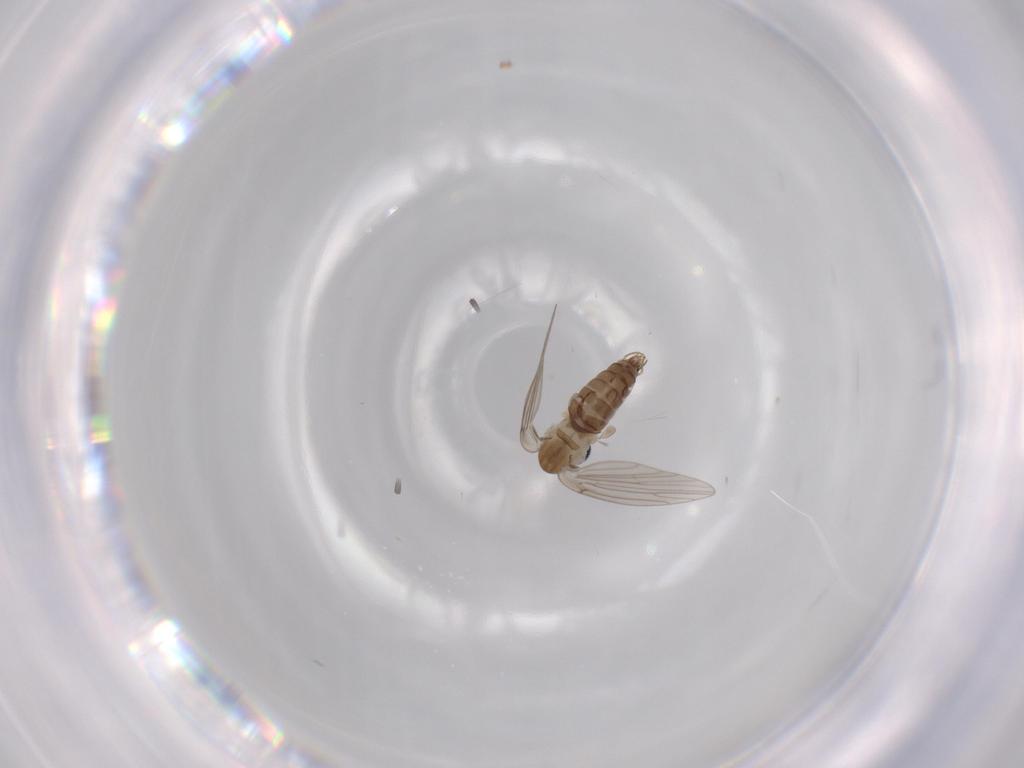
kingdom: Animalia
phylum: Arthropoda
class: Insecta
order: Diptera
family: Psychodidae
